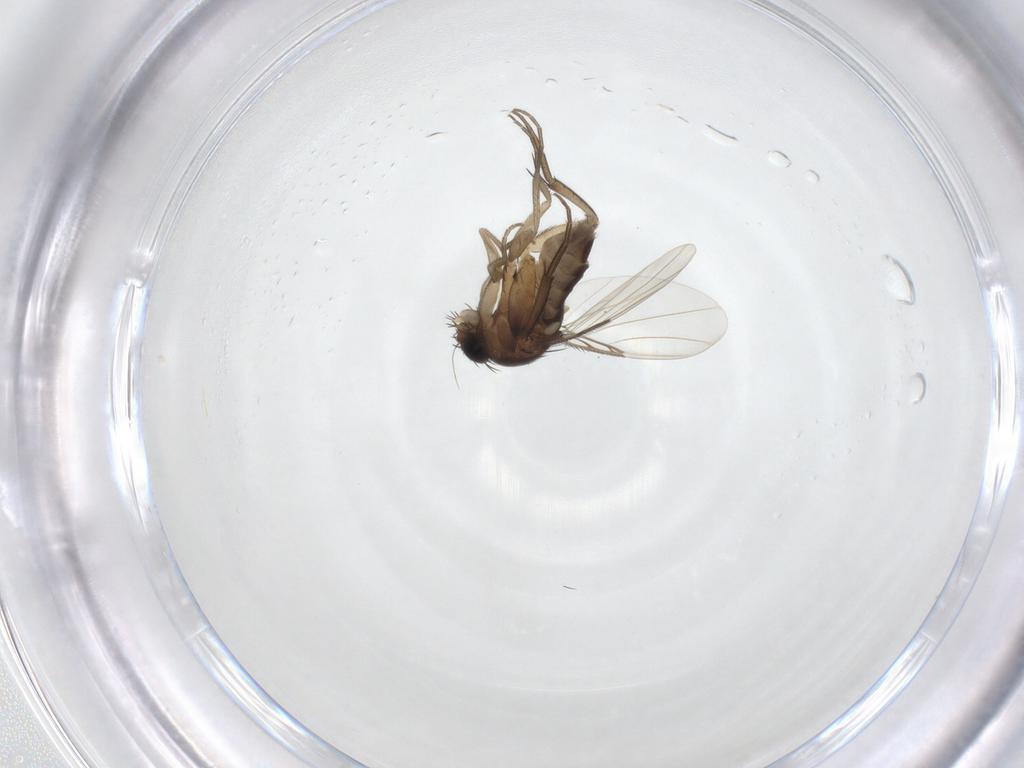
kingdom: Animalia
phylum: Arthropoda
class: Insecta
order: Diptera
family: Phoridae
